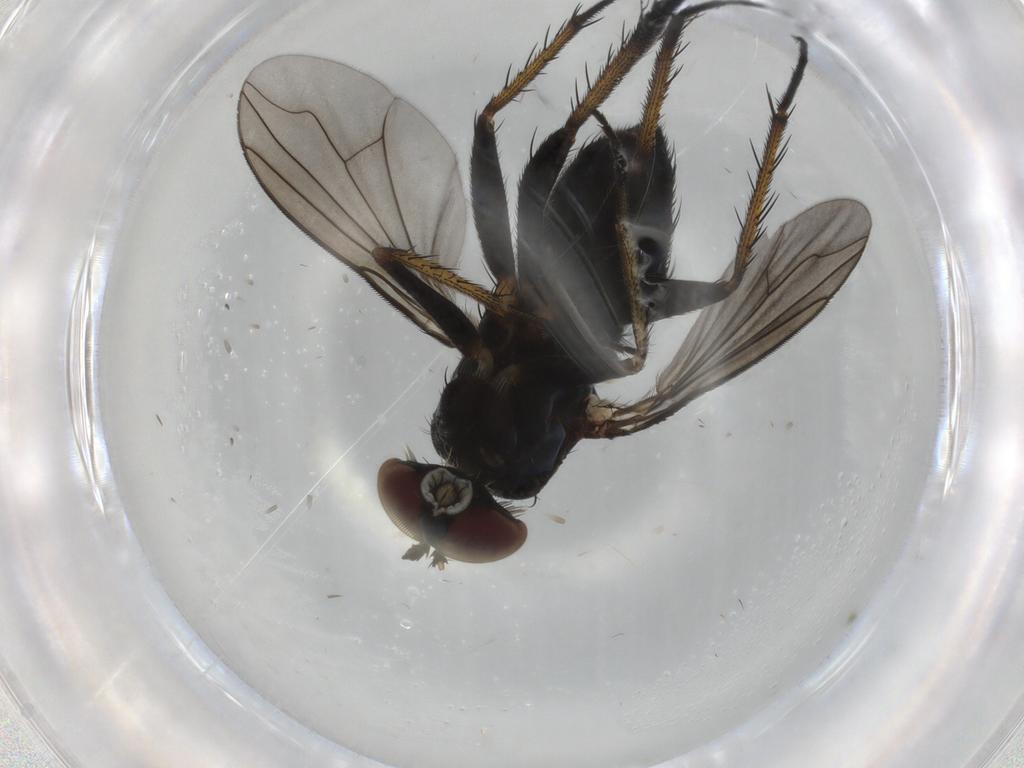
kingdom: Animalia
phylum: Arthropoda
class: Insecta
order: Diptera
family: Dolichopodidae
